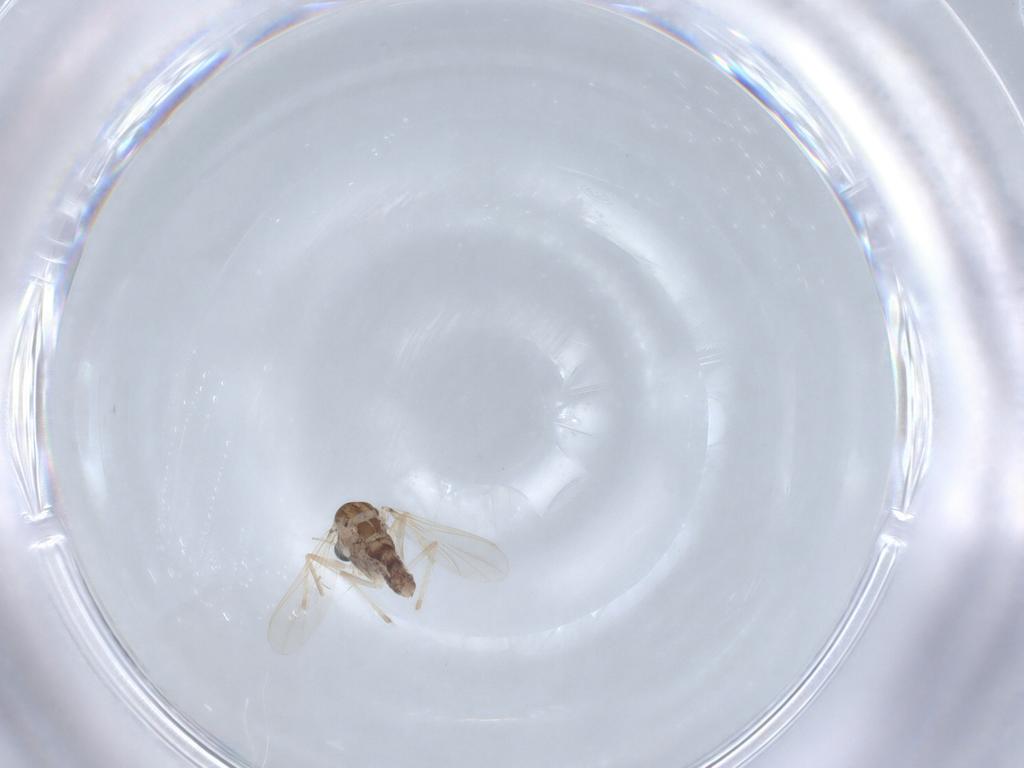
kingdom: Animalia
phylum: Arthropoda
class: Insecta
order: Diptera
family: Chironomidae
